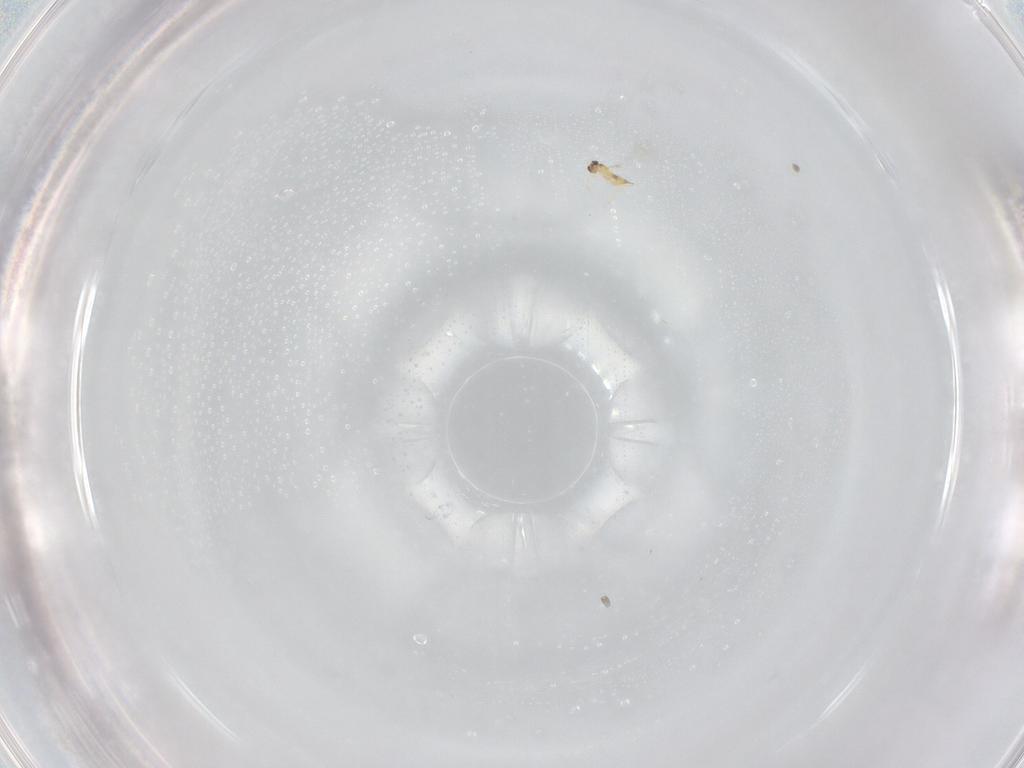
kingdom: Animalia
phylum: Arthropoda
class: Insecta
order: Hymenoptera
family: Mymaridae
